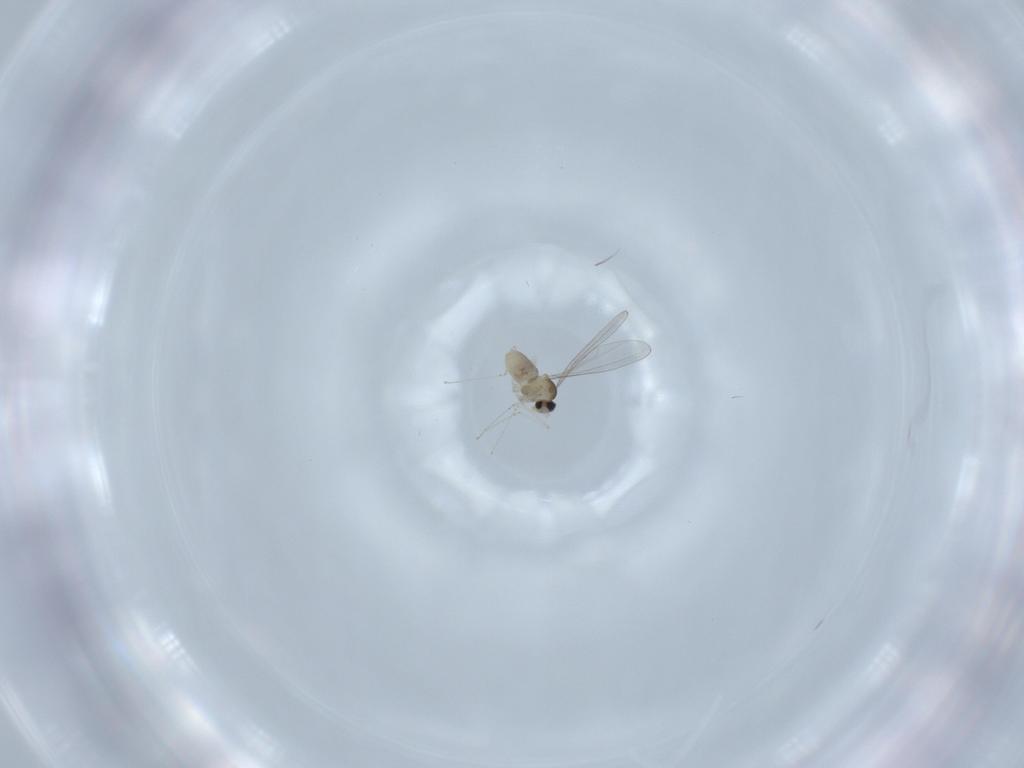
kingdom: Animalia
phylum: Arthropoda
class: Insecta
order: Diptera
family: Cecidomyiidae
